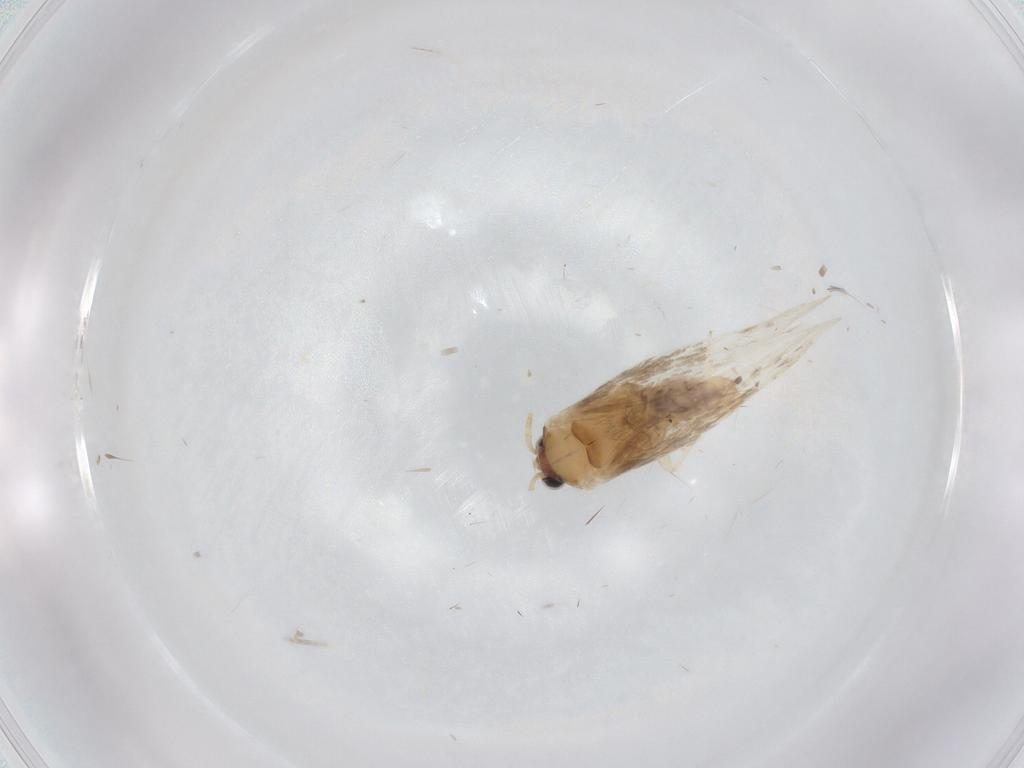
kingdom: Animalia
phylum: Arthropoda
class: Insecta
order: Lepidoptera
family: Nepticulidae
